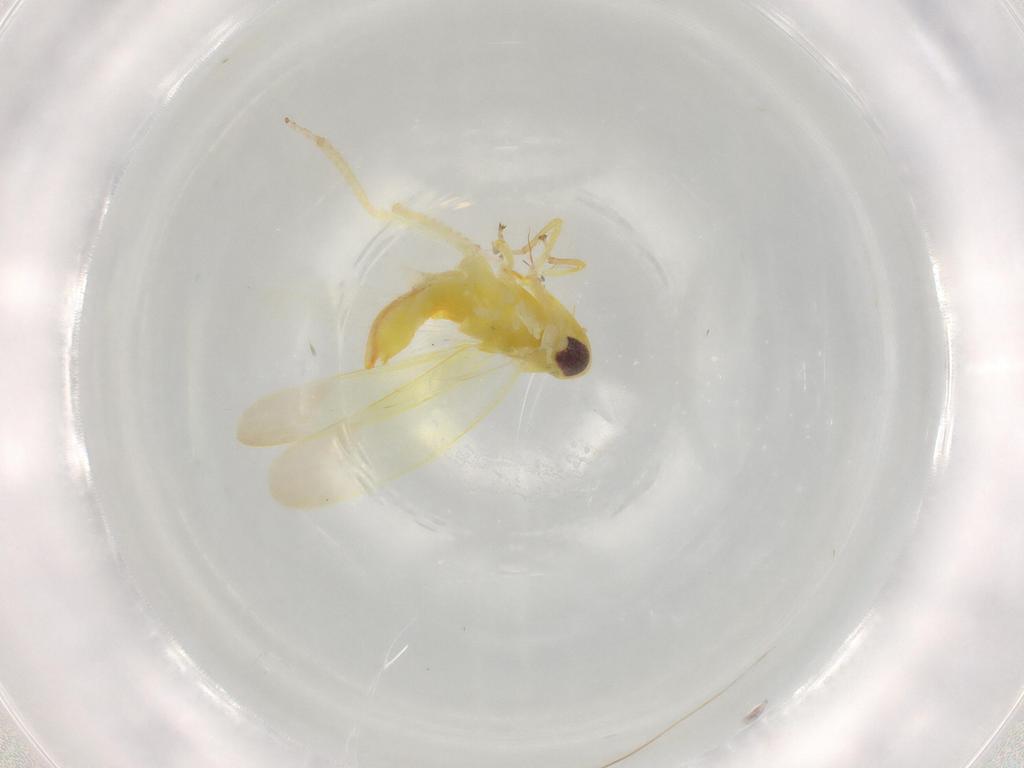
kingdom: Animalia
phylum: Arthropoda
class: Insecta
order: Hemiptera
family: Cicadellidae
